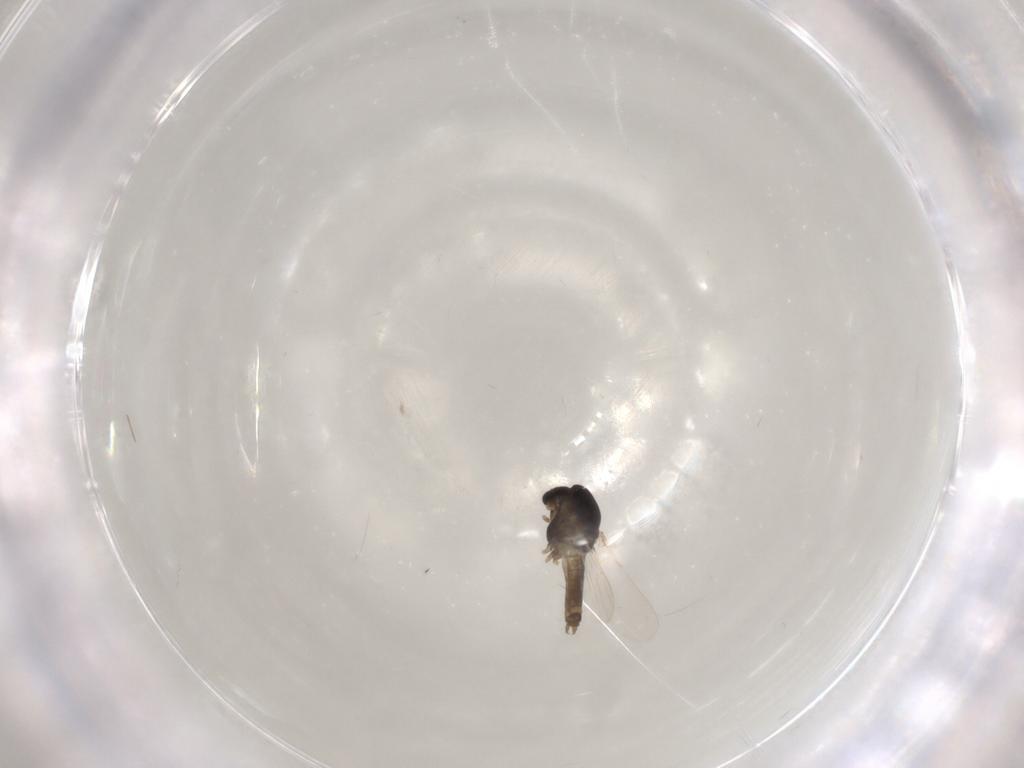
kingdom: Animalia
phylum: Arthropoda
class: Insecta
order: Diptera
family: Chironomidae
